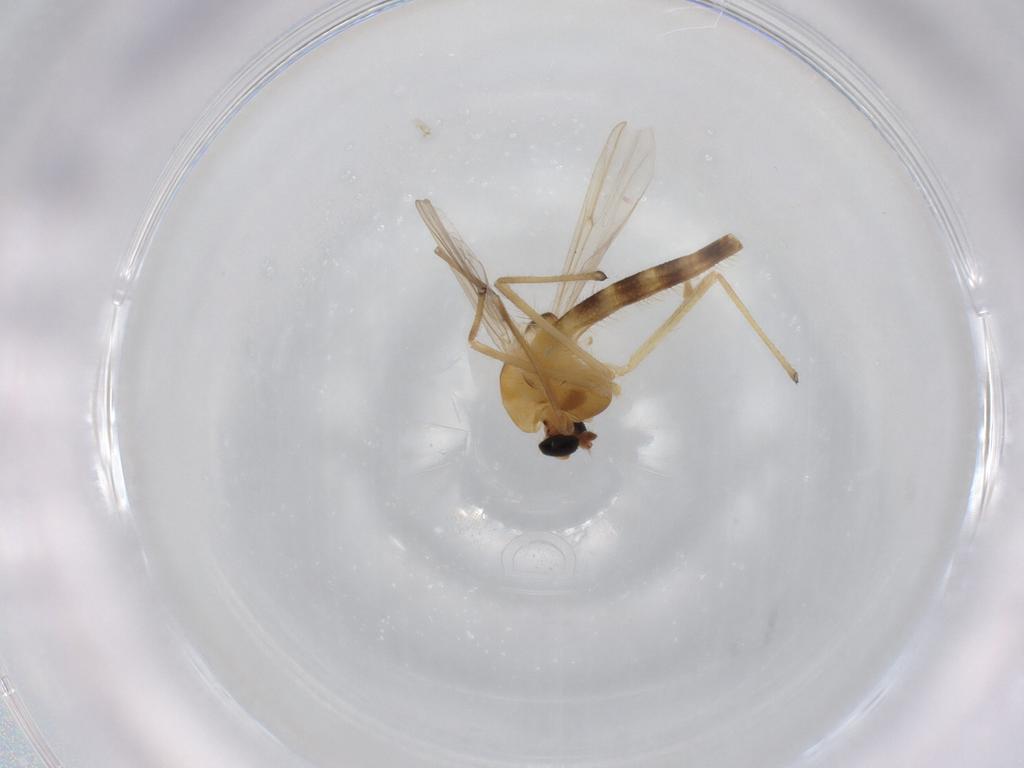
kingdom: Animalia
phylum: Arthropoda
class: Insecta
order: Diptera
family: Chironomidae
